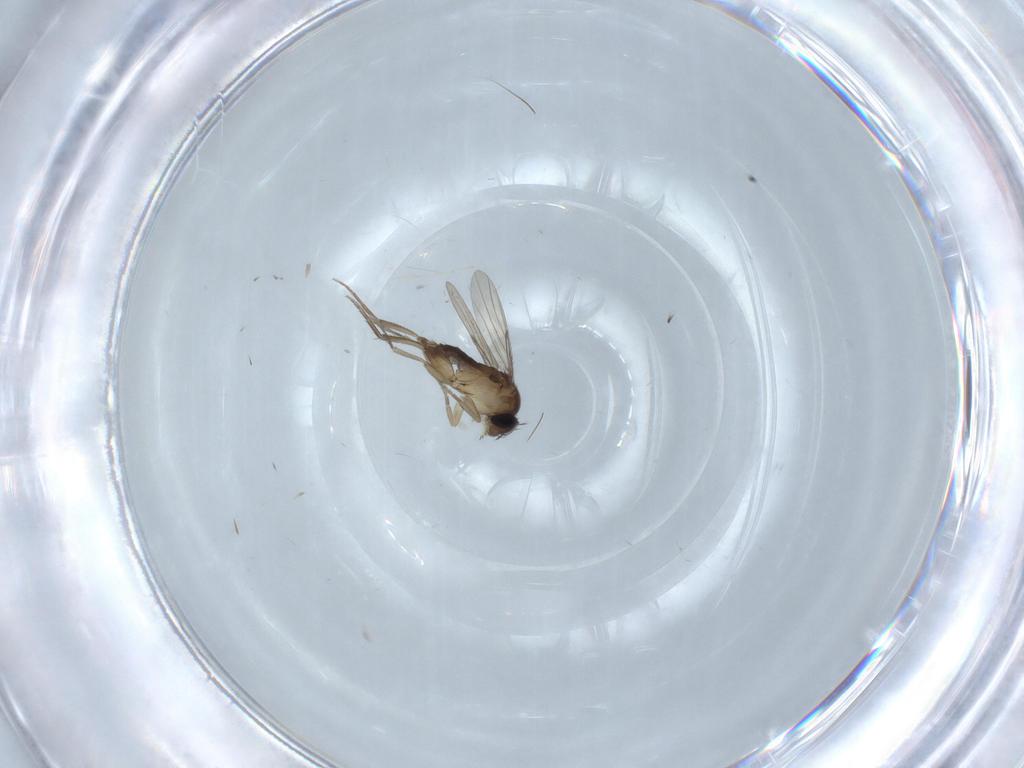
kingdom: Animalia
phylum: Arthropoda
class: Insecta
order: Diptera
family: Phoridae
